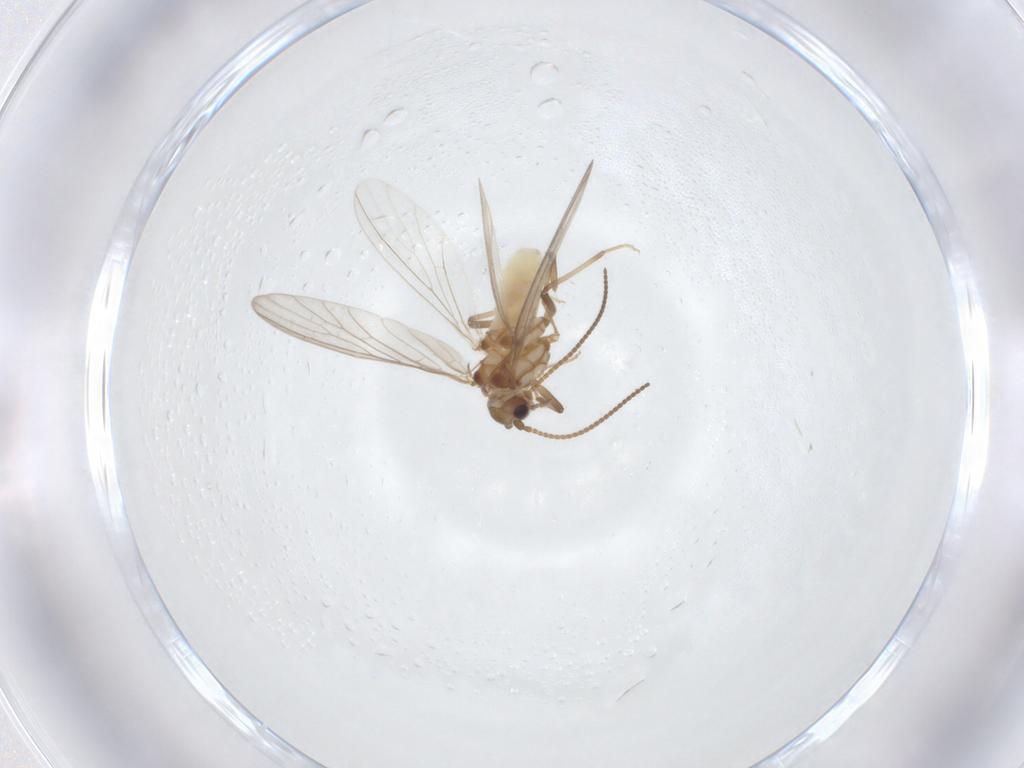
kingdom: Animalia
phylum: Arthropoda
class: Insecta
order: Neuroptera
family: Coniopterygidae
